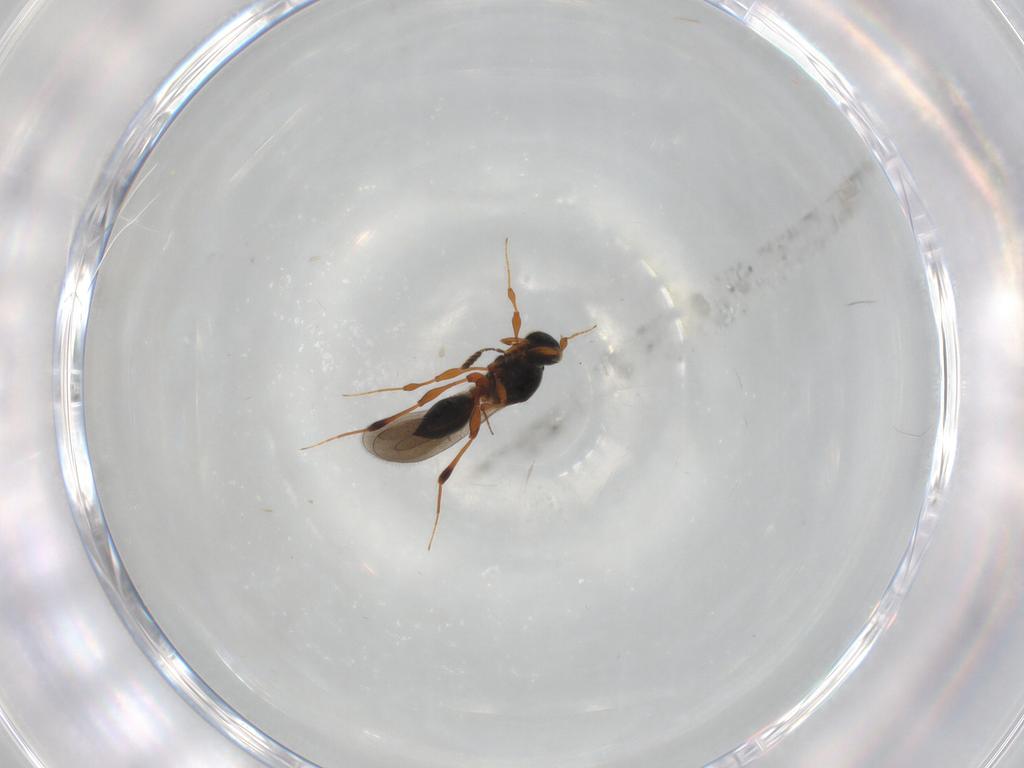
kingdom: Animalia
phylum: Arthropoda
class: Insecta
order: Hymenoptera
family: Platygastridae
